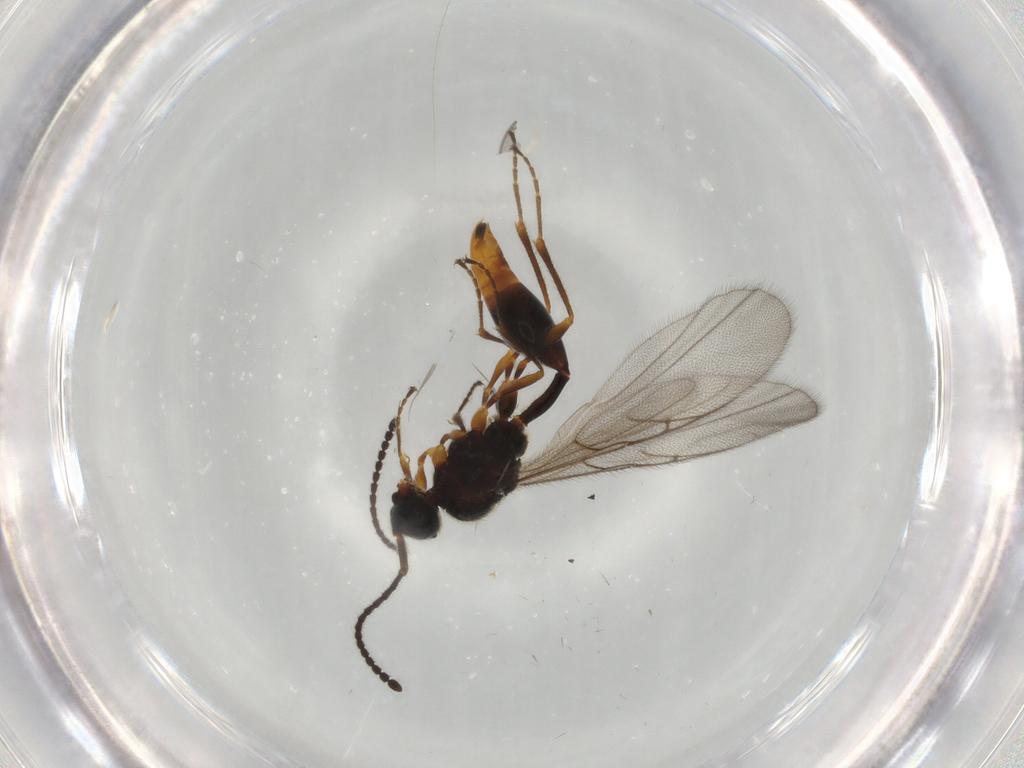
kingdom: Animalia
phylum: Arthropoda
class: Insecta
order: Hymenoptera
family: Diapriidae
